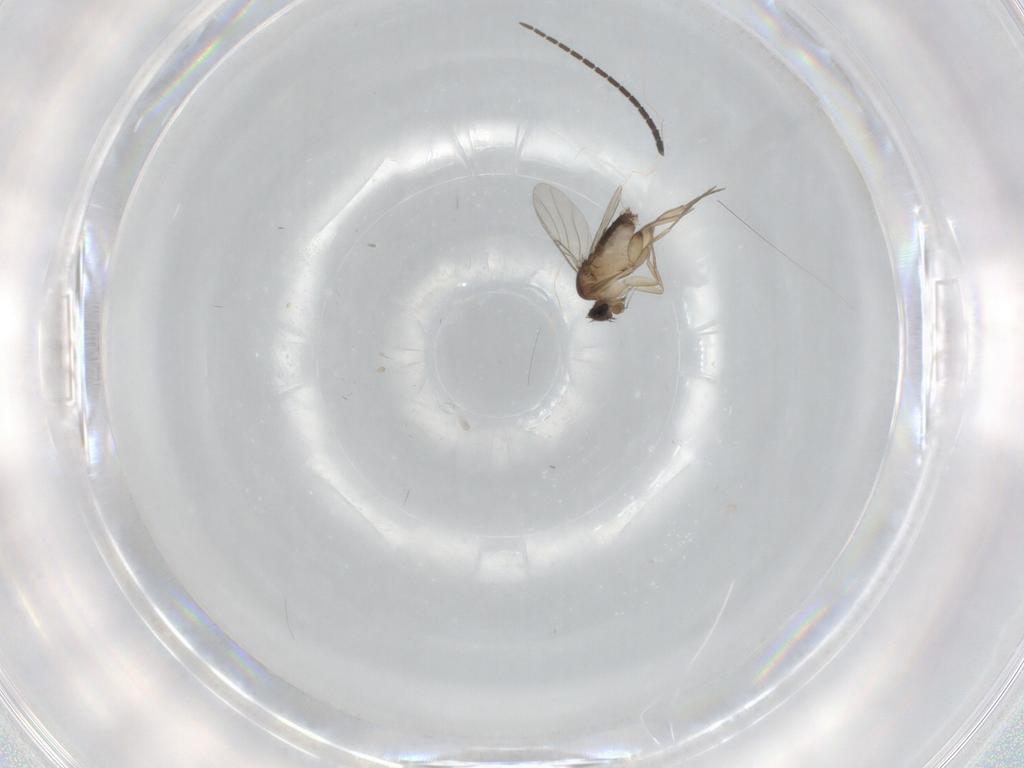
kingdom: Animalia
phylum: Arthropoda
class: Insecta
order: Diptera
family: Phoridae
